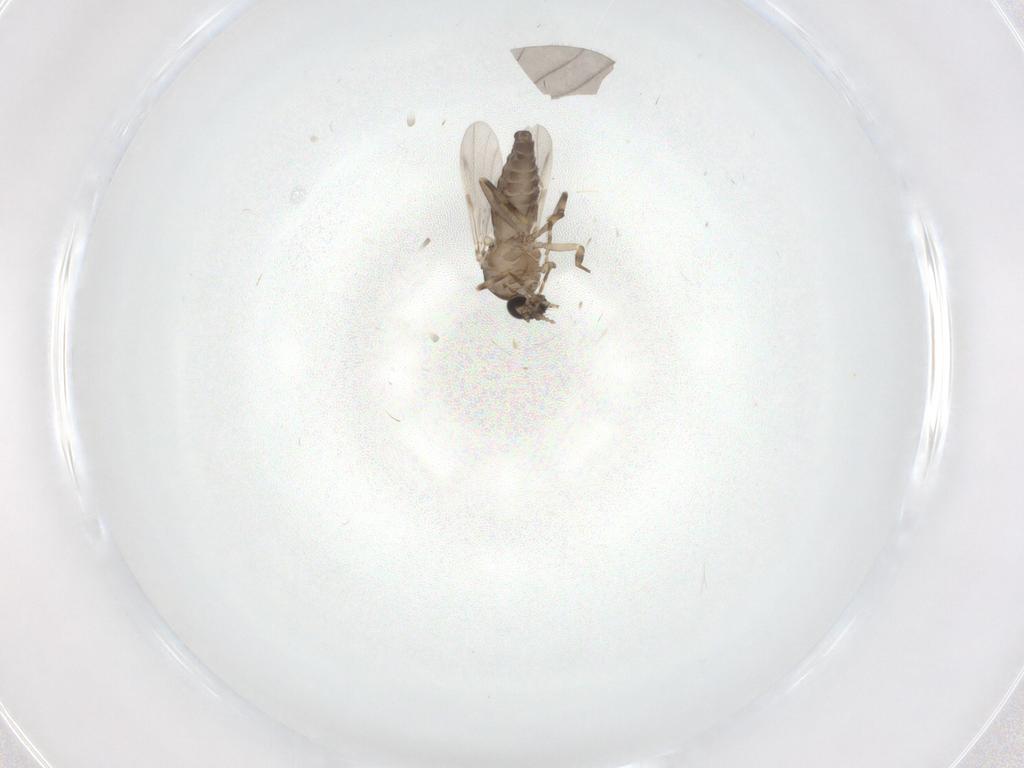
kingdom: Animalia
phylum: Arthropoda
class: Insecta
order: Diptera
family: Ceratopogonidae
